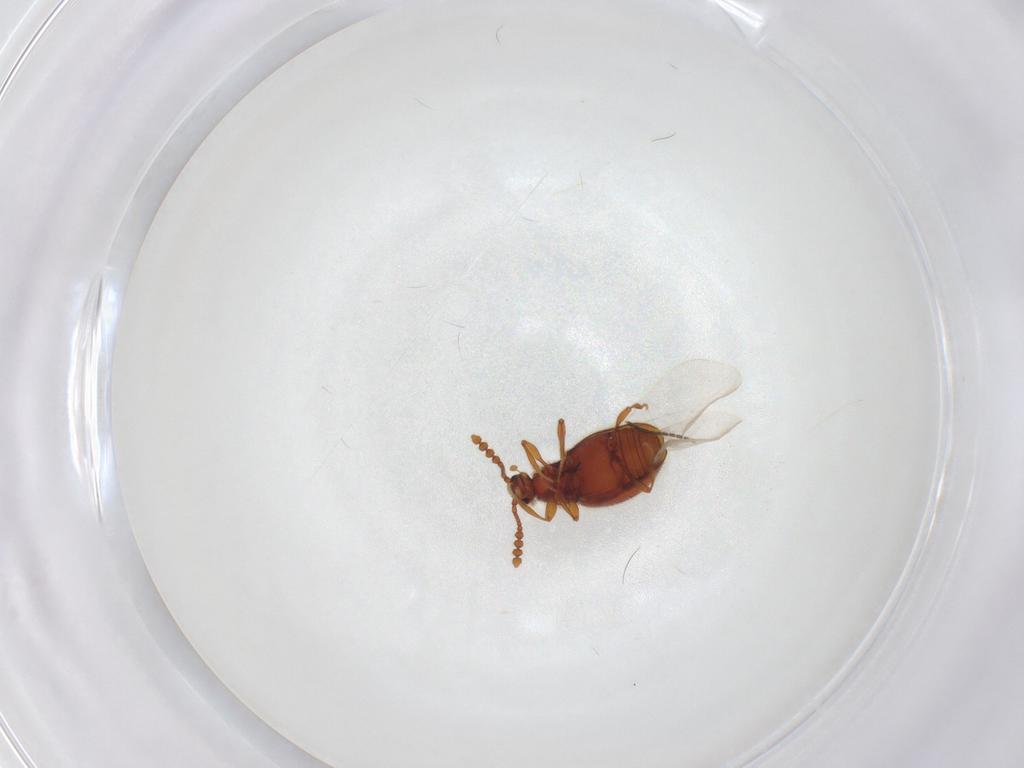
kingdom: Animalia
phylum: Arthropoda
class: Insecta
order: Coleoptera
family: Staphylinidae
